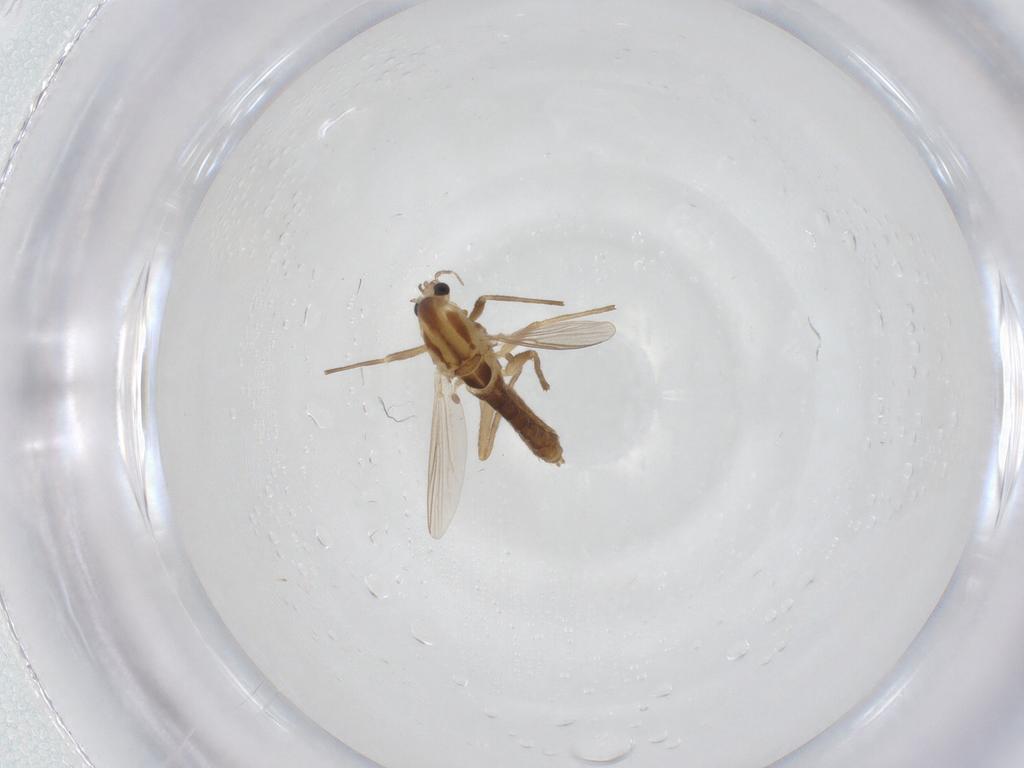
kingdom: Animalia
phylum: Arthropoda
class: Insecta
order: Diptera
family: Chironomidae
